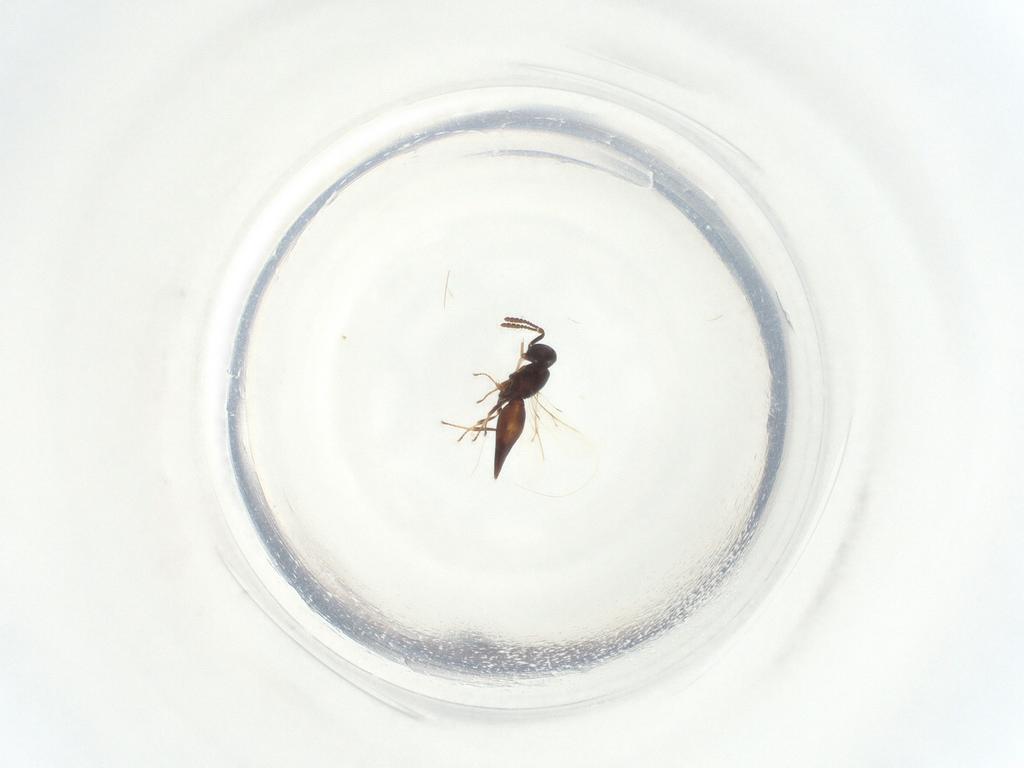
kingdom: Animalia
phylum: Arthropoda
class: Insecta
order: Hymenoptera
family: Scelionidae
